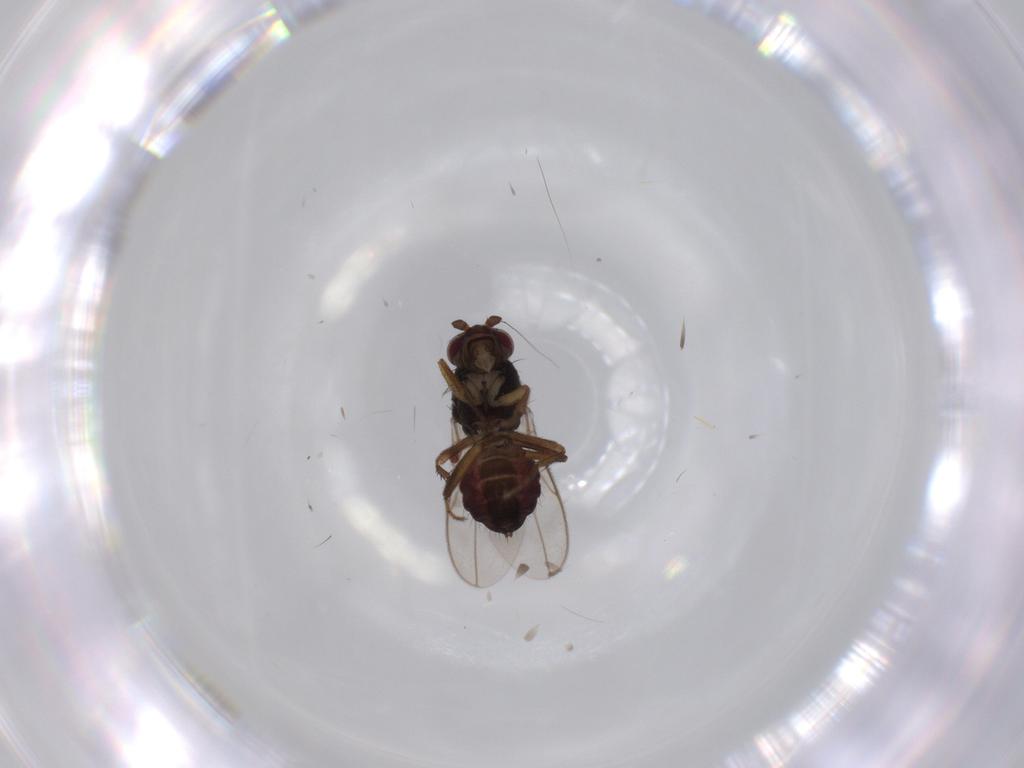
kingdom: Animalia
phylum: Arthropoda
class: Insecta
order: Diptera
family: Sphaeroceridae
